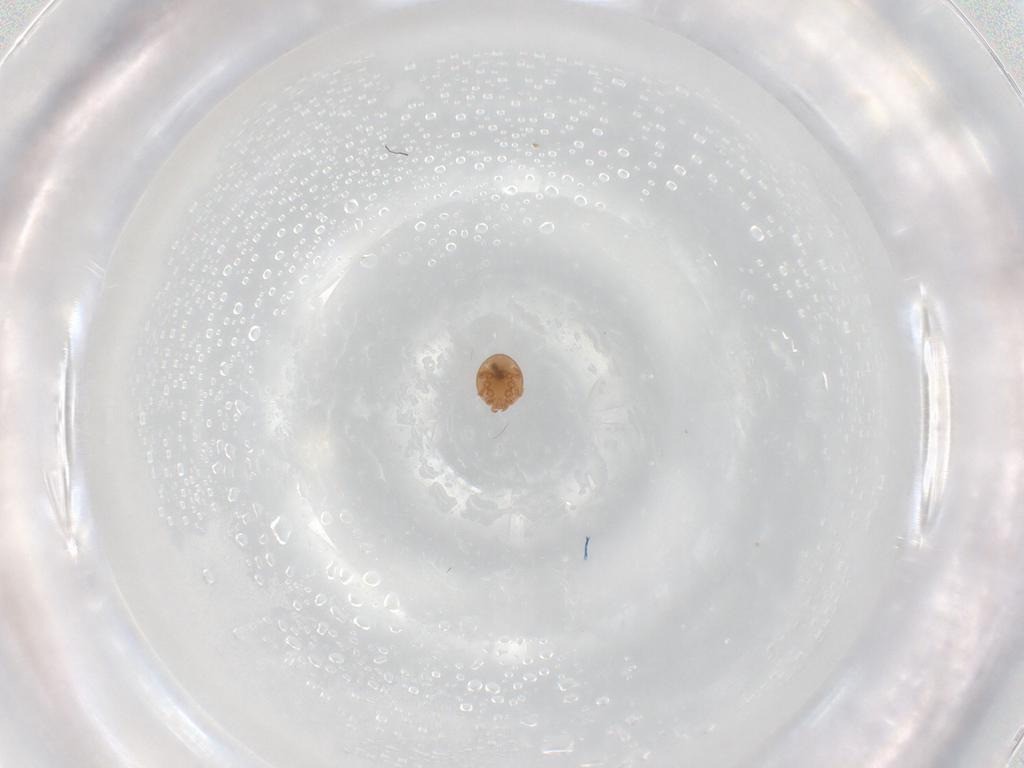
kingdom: Animalia
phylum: Arthropoda
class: Arachnida
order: Mesostigmata
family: Trematuridae
